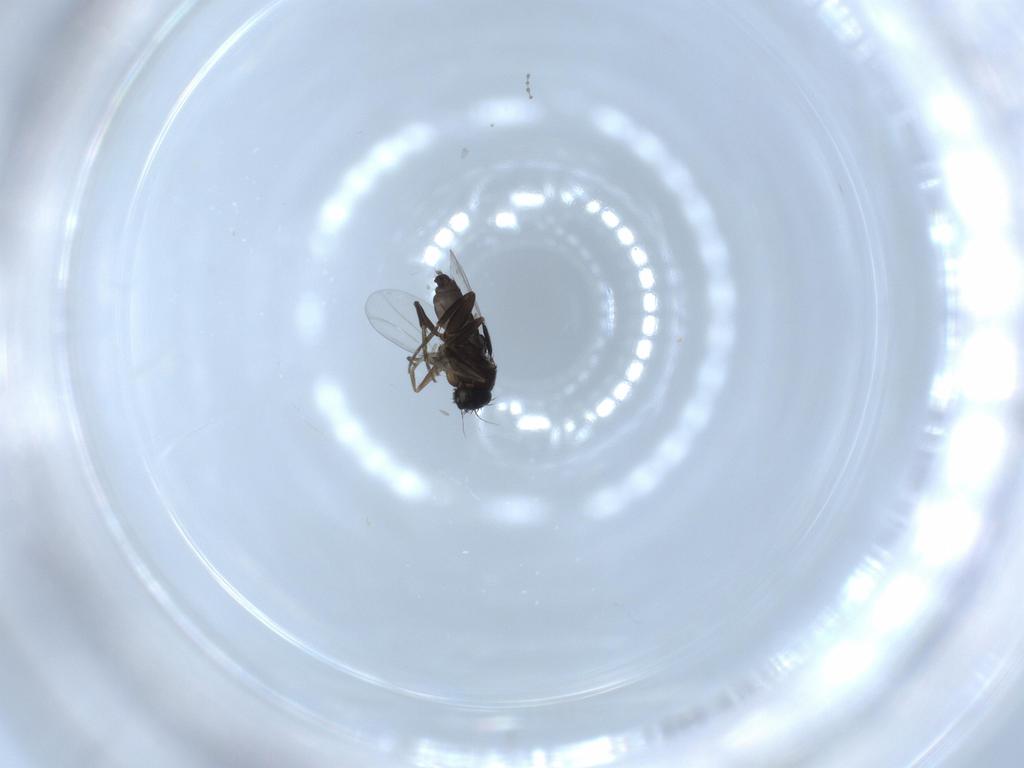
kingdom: Animalia
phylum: Arthropoda
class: Insecta
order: Diptera
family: Phoridae
